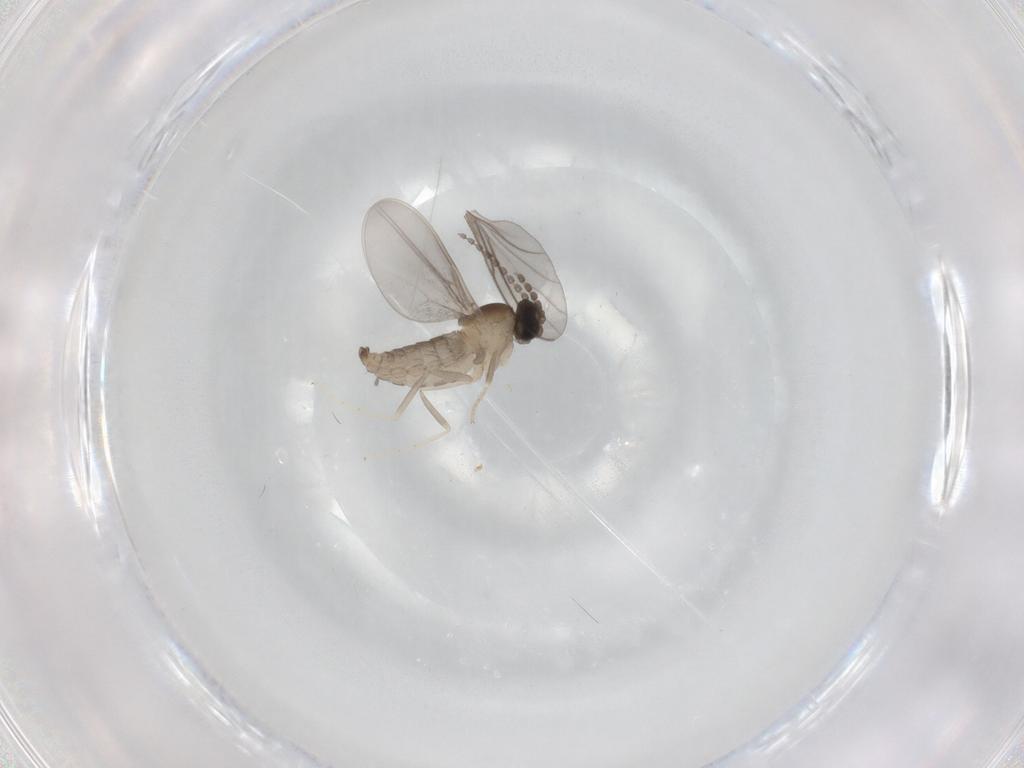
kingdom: Animalia
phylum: Arthropoda
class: Insecta
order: Diptera
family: Cecidomyiidae
